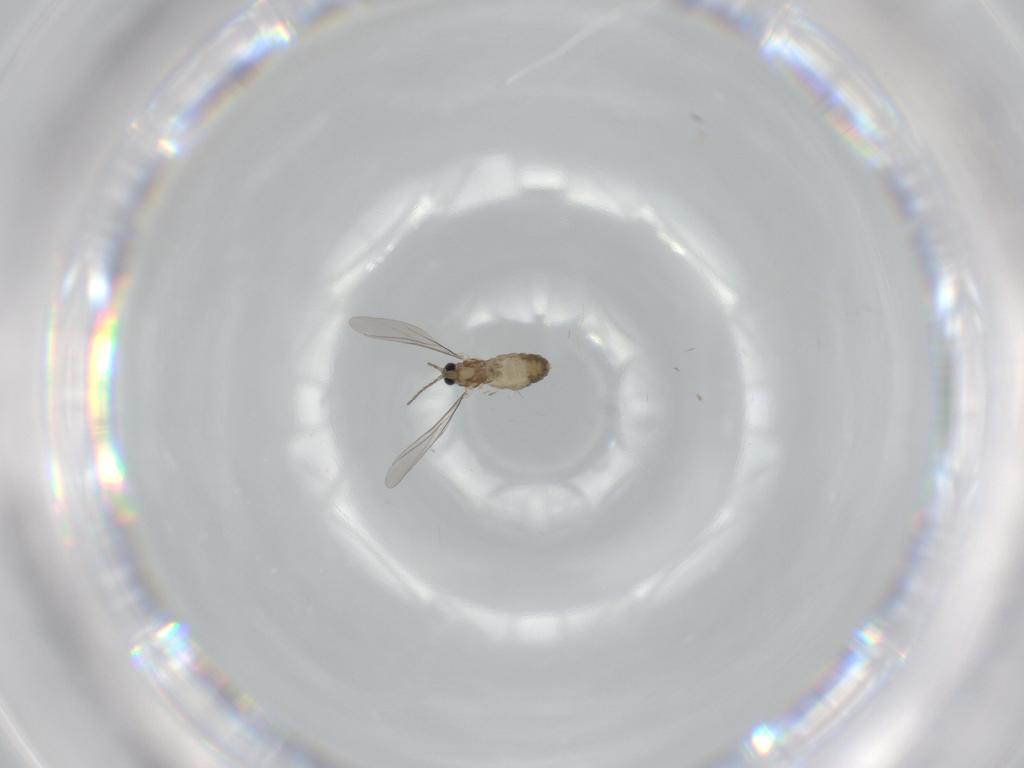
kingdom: Animalia
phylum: Arthropoda
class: Insecta
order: Diptera
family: Cecidomyiidae
